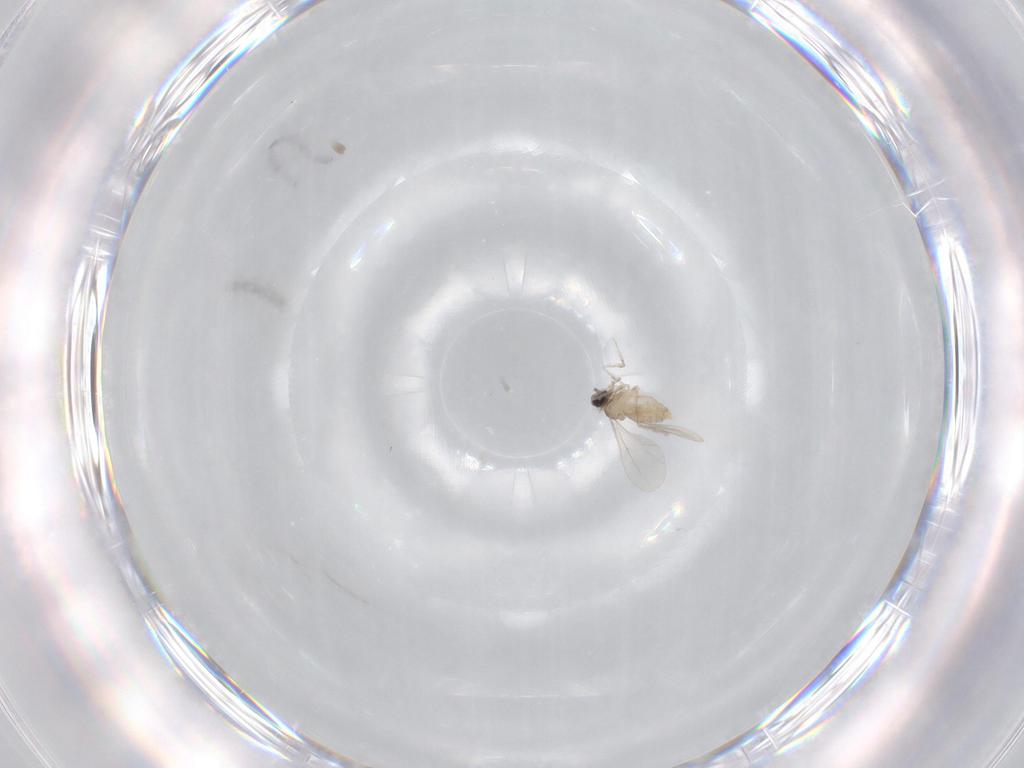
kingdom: Animalia
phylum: Arthropoda
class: Insecta
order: Diptera
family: Cecidomyiidae
